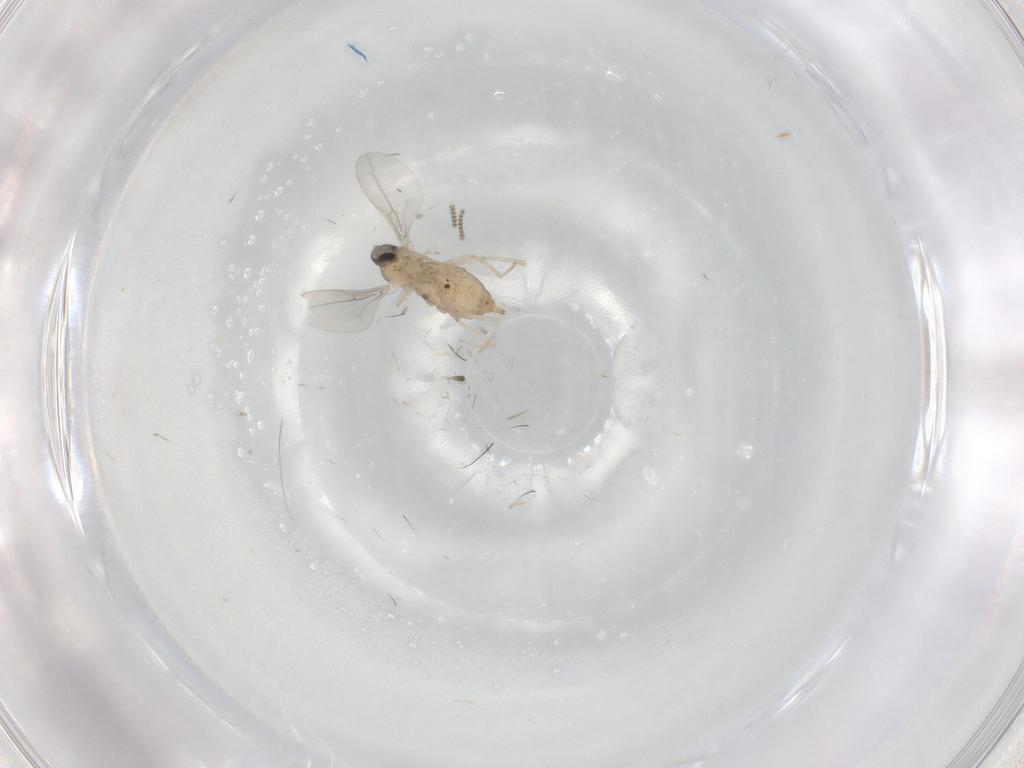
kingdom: Animalia
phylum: Arthropoda
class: Insecta
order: Diptera
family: Cecidomyiidae
